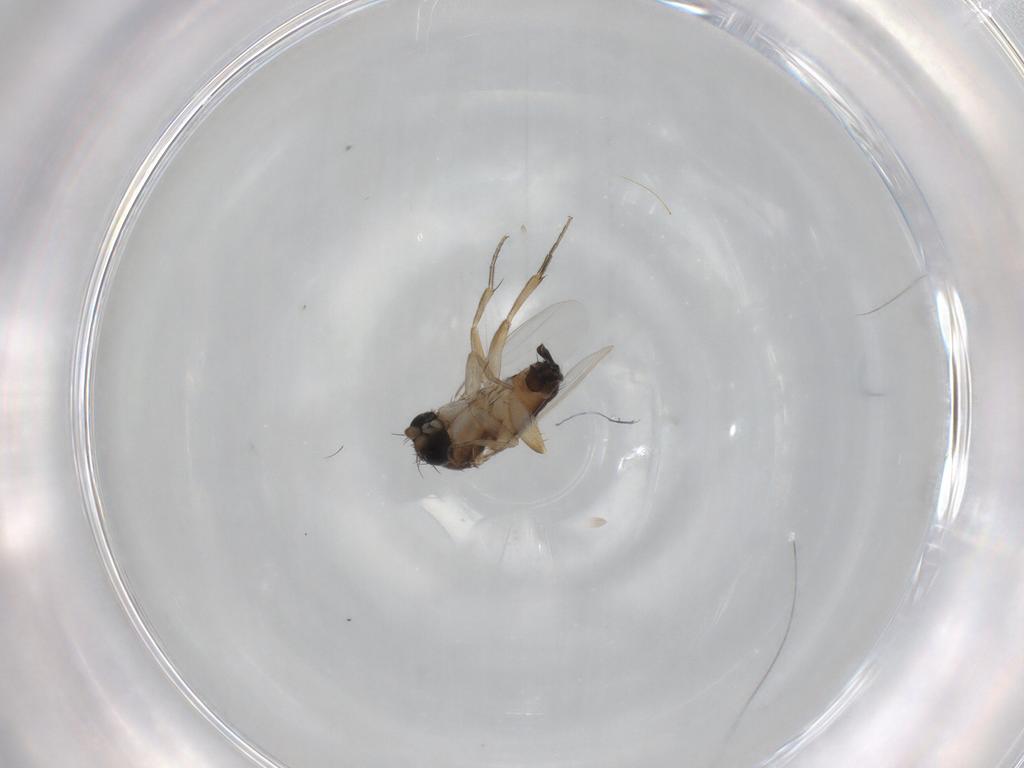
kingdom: Animalia
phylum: Arthropoda
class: Insecta
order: Diptera
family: Phoridae
